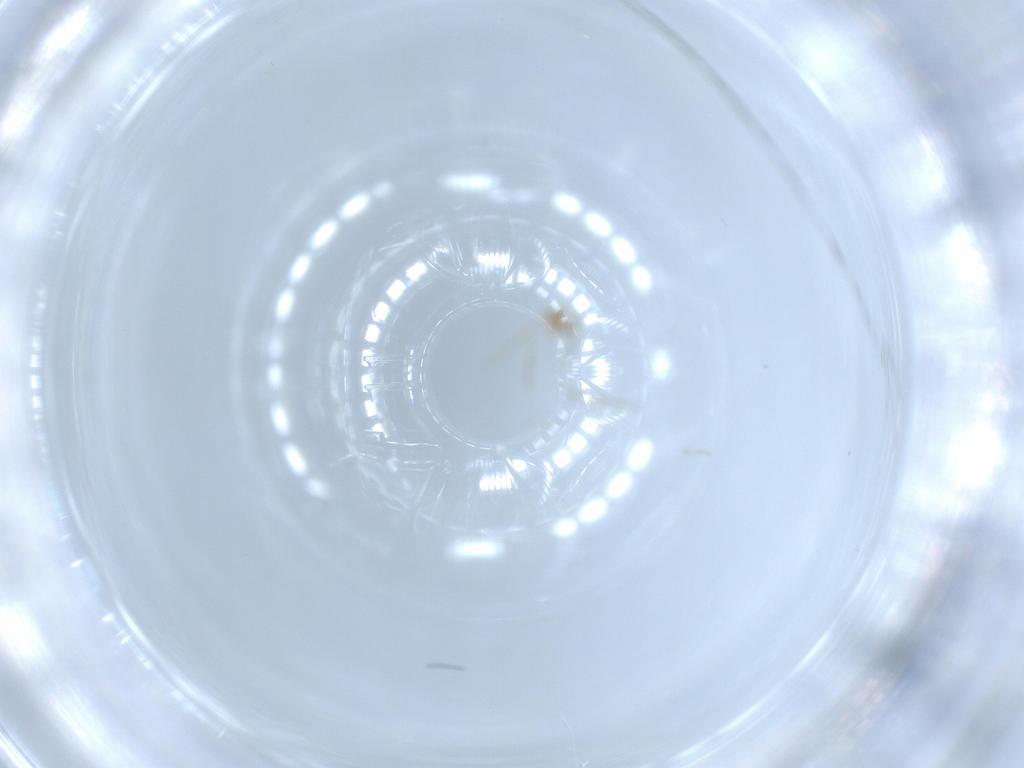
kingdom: Animalia
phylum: Arthropoda
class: Insecta
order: Diptera
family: Cecidomyiidae
